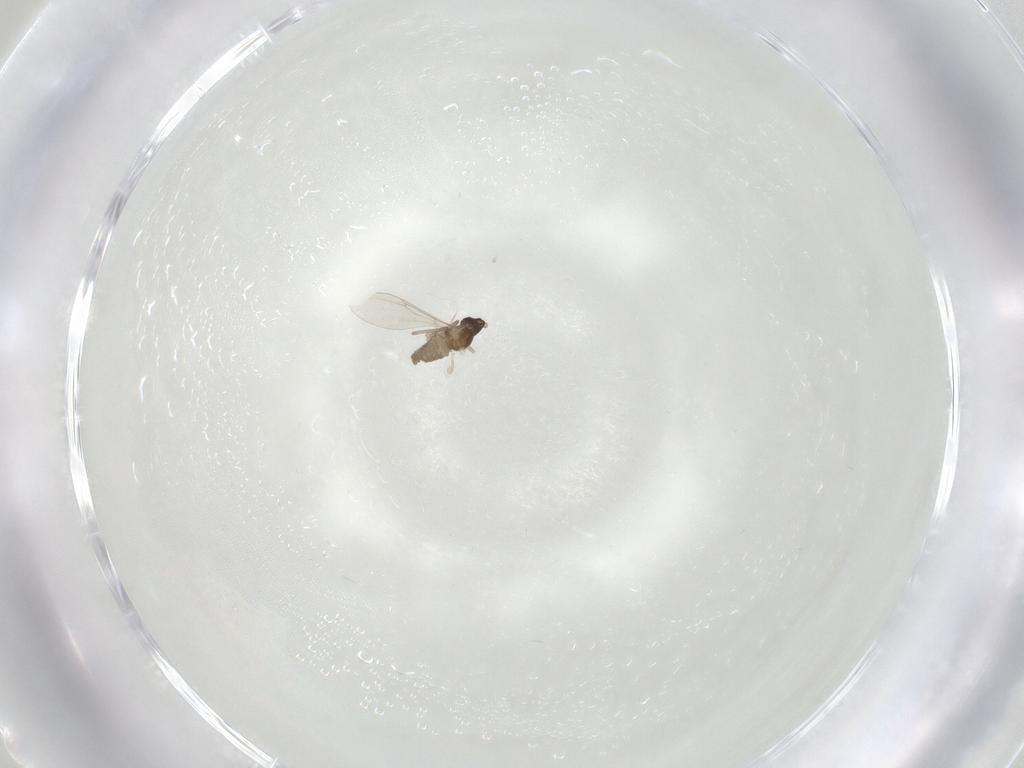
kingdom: Animalia
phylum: Arthropoda
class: Insecta
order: Diptera
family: Cecidomyiidae
